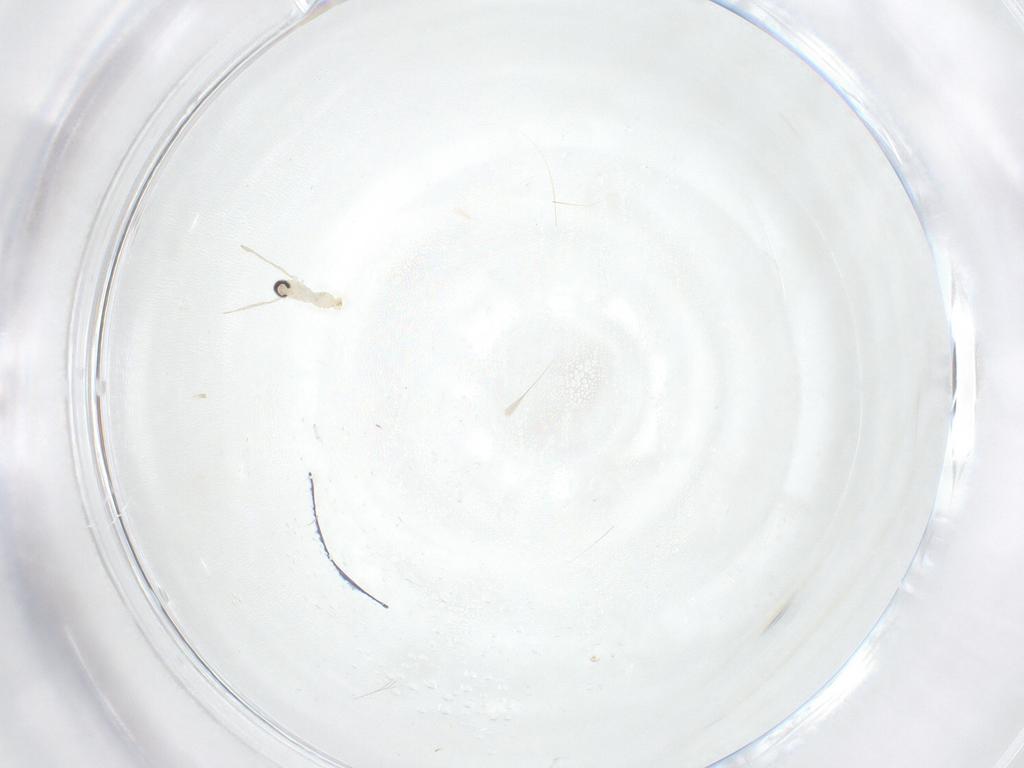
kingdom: Animalia
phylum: Arthropoda
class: Insecta
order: Diptera
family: Cecidomyiidae
